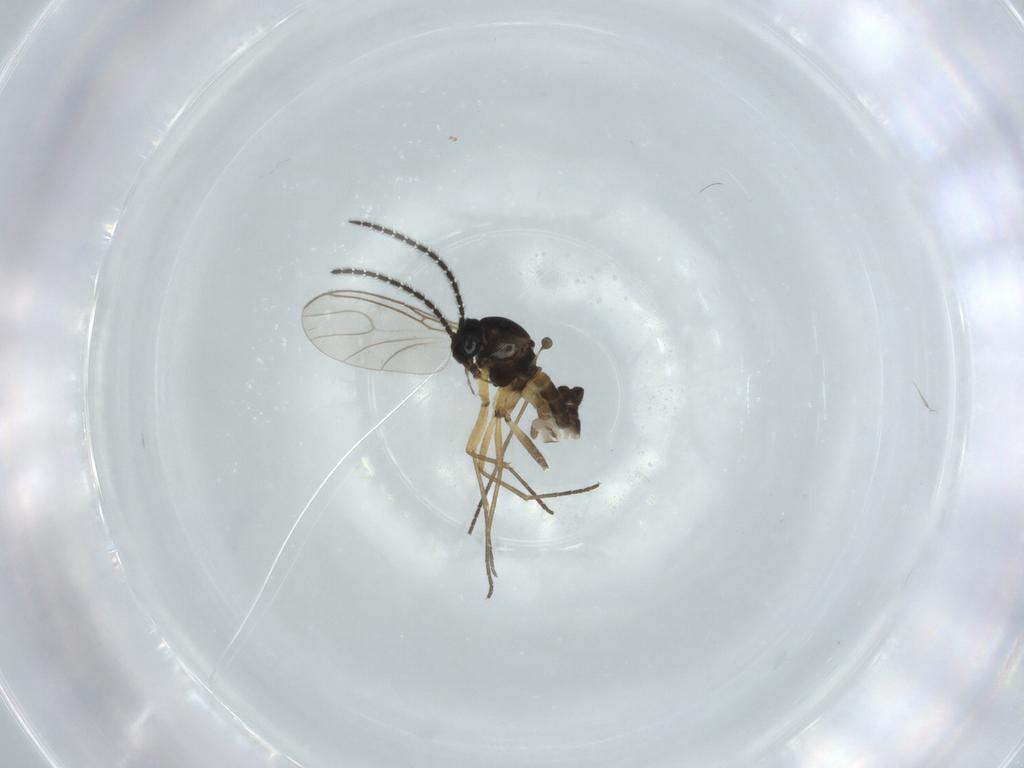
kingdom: Animalia
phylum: Arthropoda
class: Insecta
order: Diptera
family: Sciaridae
